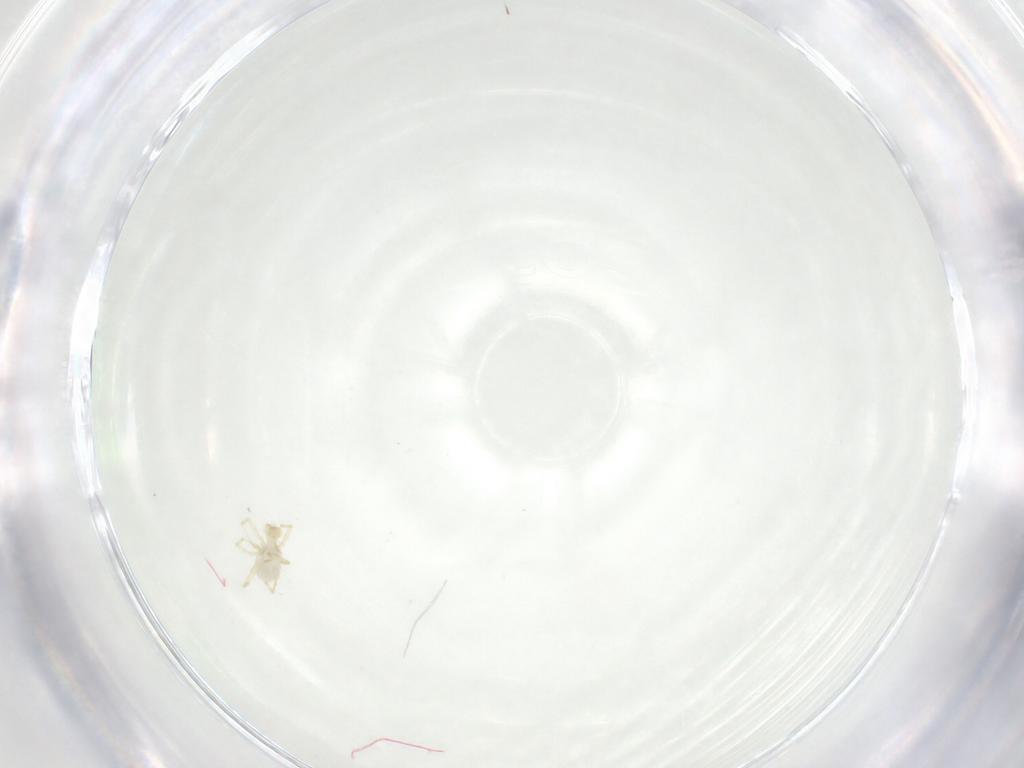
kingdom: Animalia
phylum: Arthropoda
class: Arachnida
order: Trombidiformes
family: Erythraeidae
